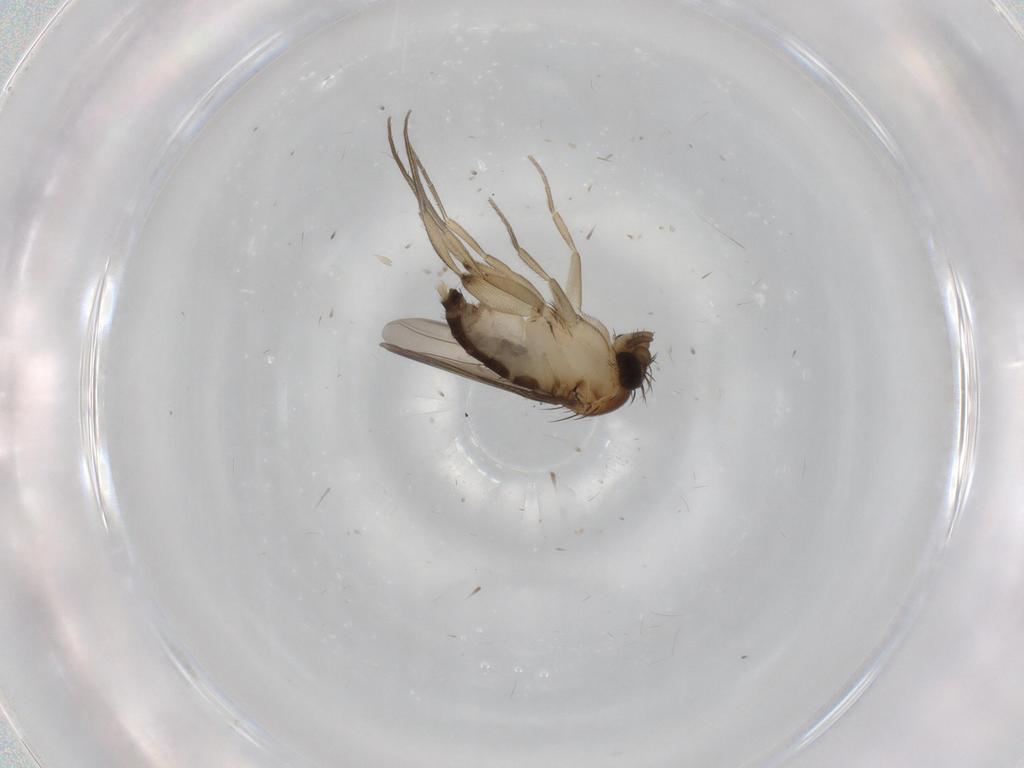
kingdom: Animalia
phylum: Arthropoda
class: Insecta
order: Diptera
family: Phoridae
